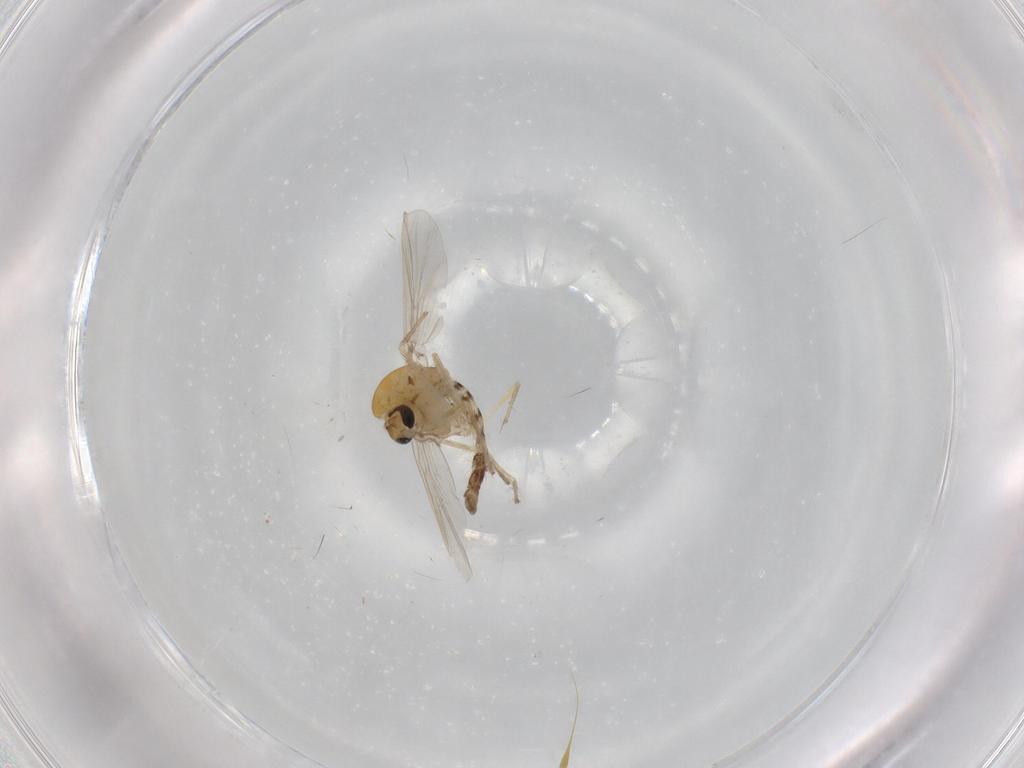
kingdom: Animalia
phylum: Arthropoda
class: Insecta
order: Diptera
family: Chironomidae
